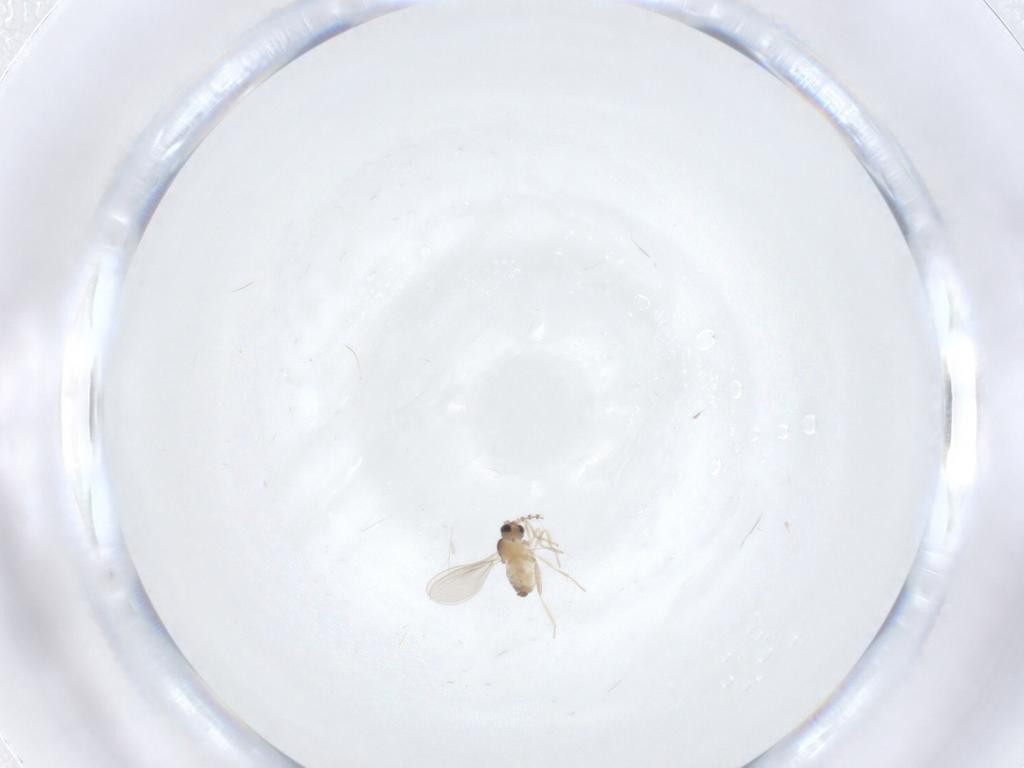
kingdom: Animalia
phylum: Arthropoda
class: Insecta
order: Diptera
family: Cecidomyiidae
